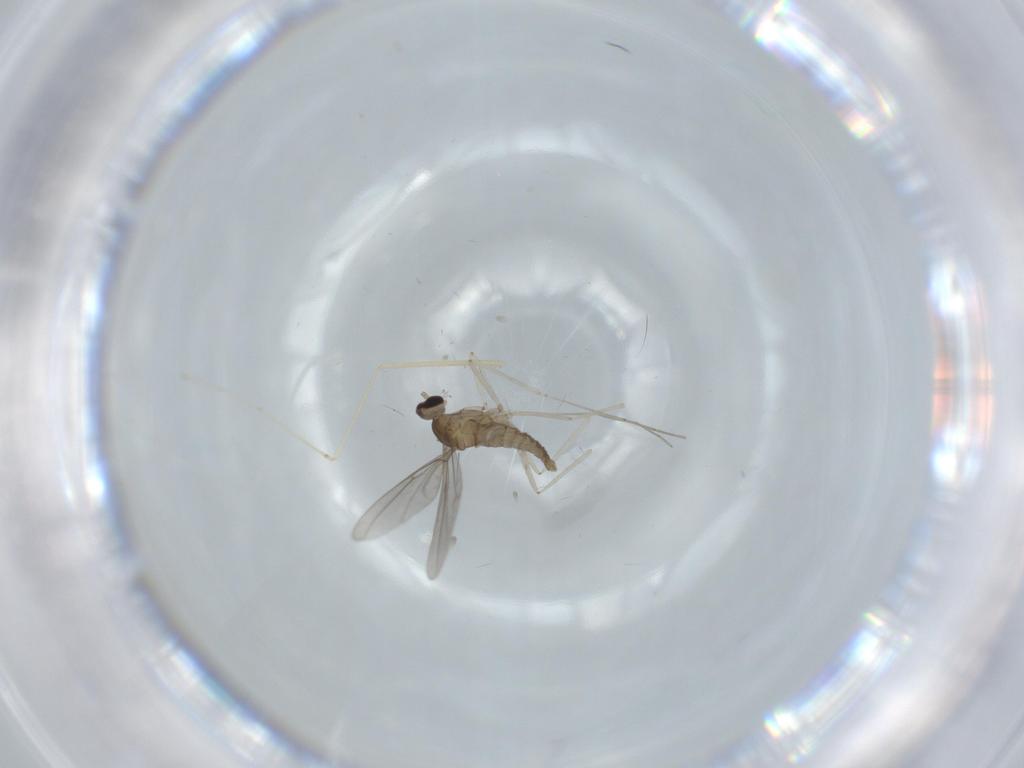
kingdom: Animalia
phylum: Arthropoda
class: Insecta
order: Diptera
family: Cecidomyiidae
